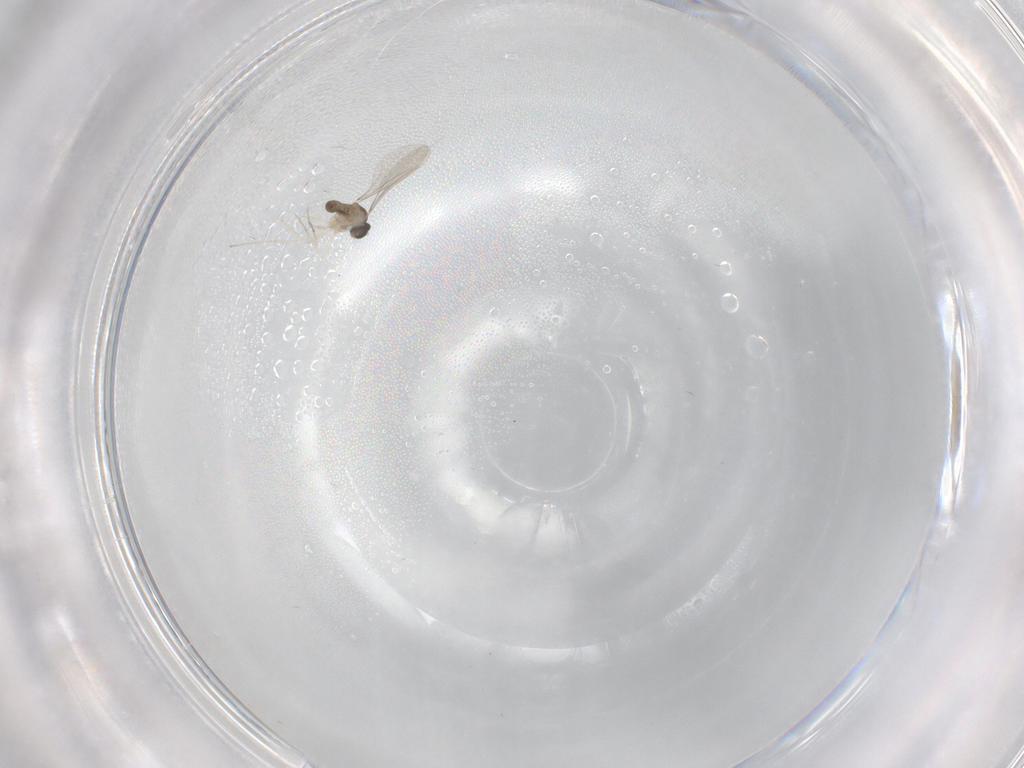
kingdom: Animalia
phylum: Arthropoda
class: Insecta
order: Diptera
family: Cecidomyiidae
